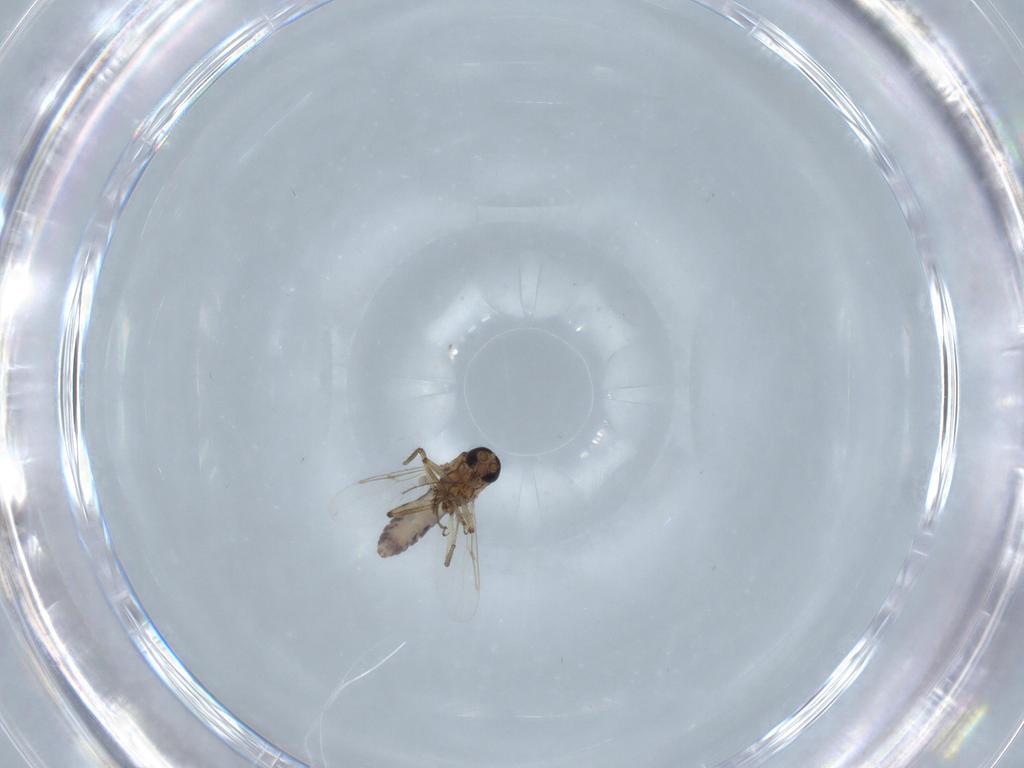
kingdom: Animalia
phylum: Arthropoda
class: Insecta
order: Diptera
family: Ceratopogonidae
